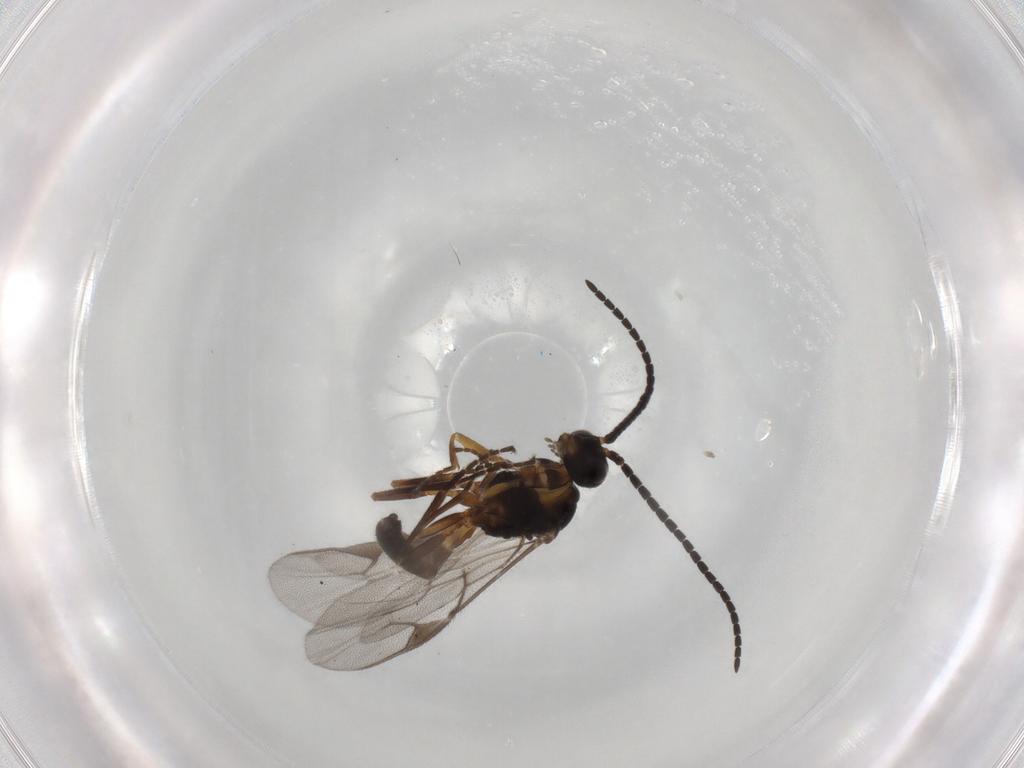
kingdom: Animalia
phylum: Arthropoda
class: Insecta
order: Hymenoptera
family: Braconidae
